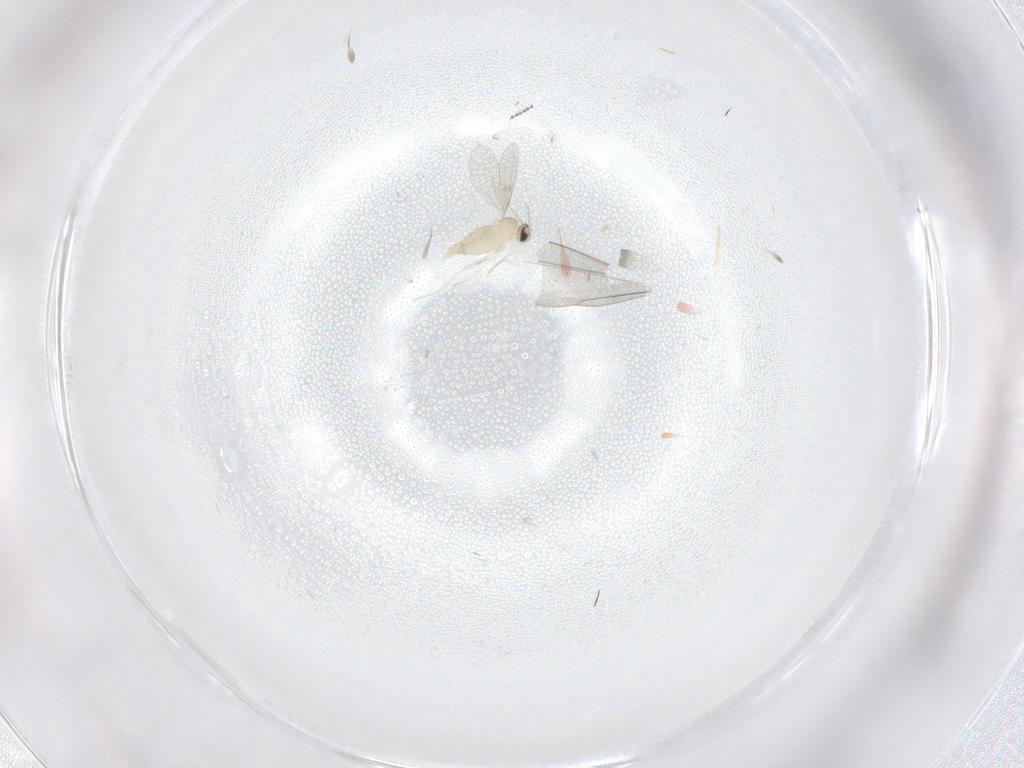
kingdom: Animalia
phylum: Arthropoda
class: Insecta
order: Diptera
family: Cecidomyiidae
